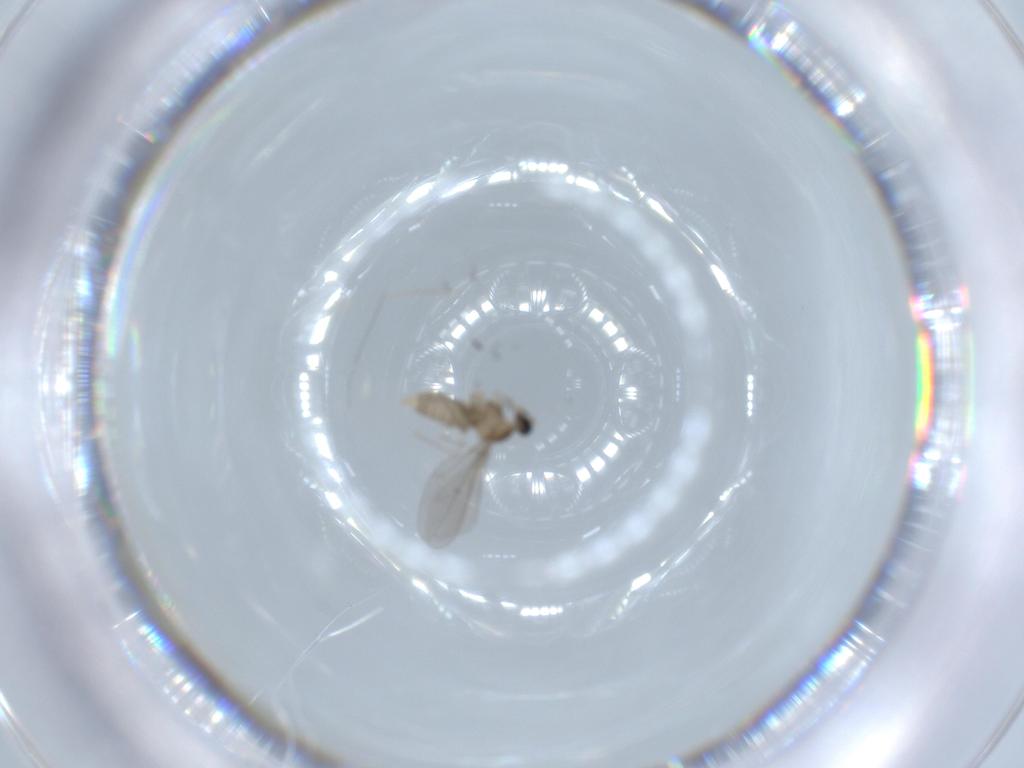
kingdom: Animalia
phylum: Arthropoda
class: Insecta
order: Diptera
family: Cecidomyiidae
